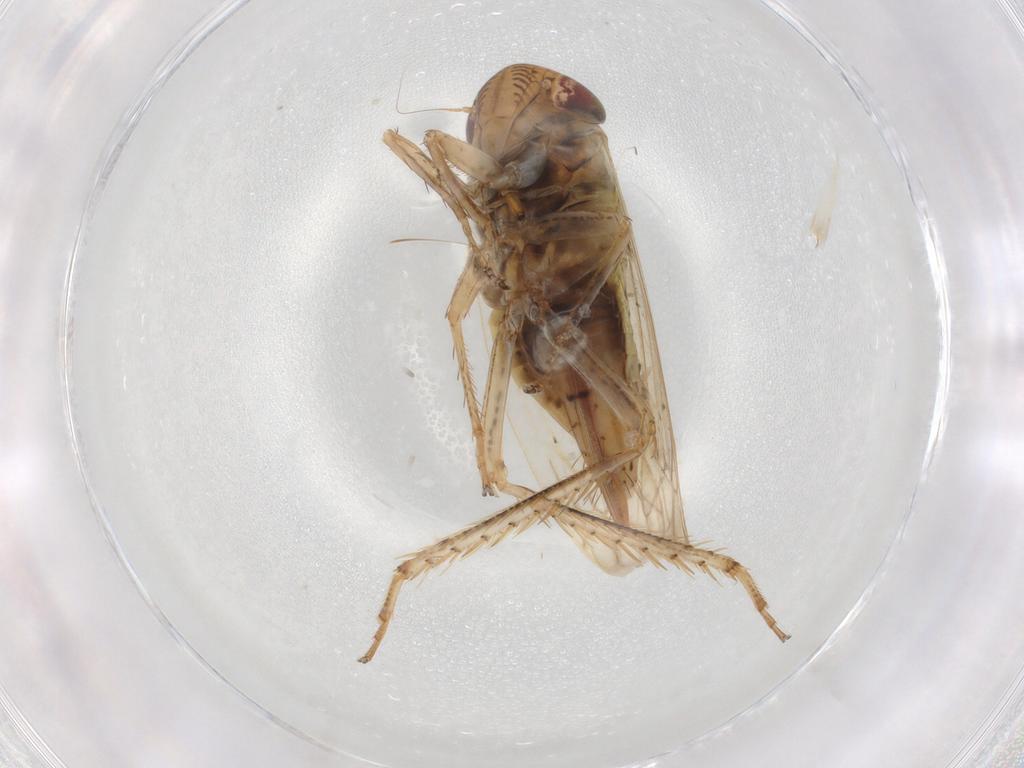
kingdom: Animalia
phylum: Arthropoda
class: Insecta
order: Hemiptera
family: Cicadellidae
